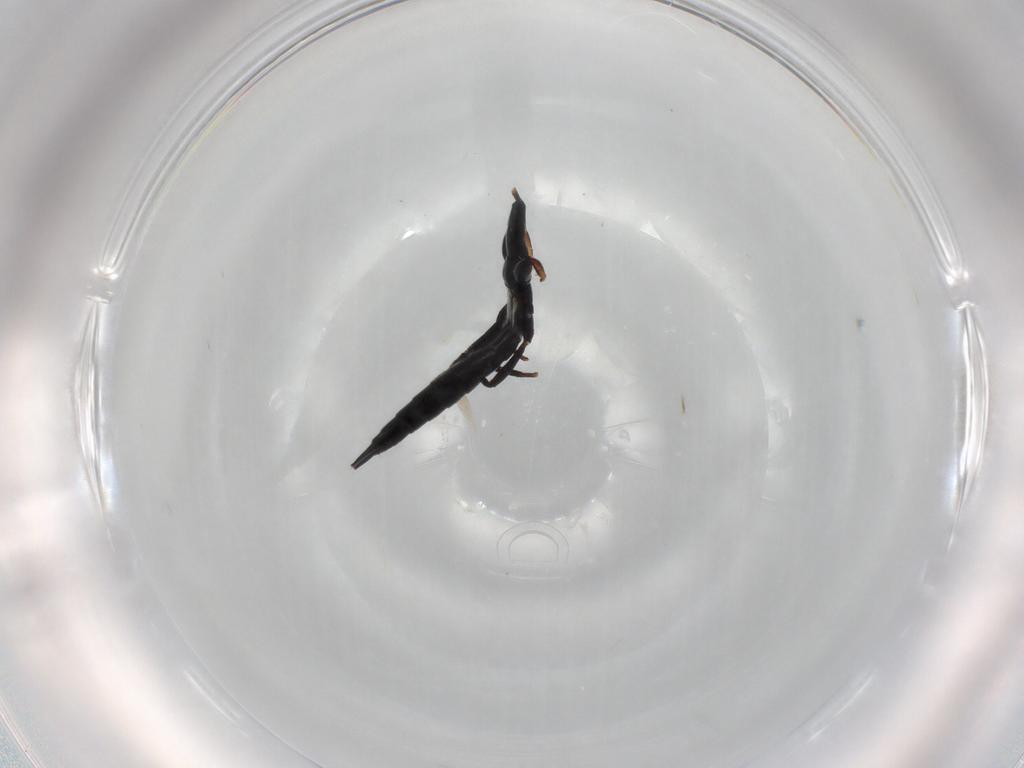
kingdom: Animalia
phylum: Arthropoda
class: Insecta
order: Thysanoptera
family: Phlaeothripidae
